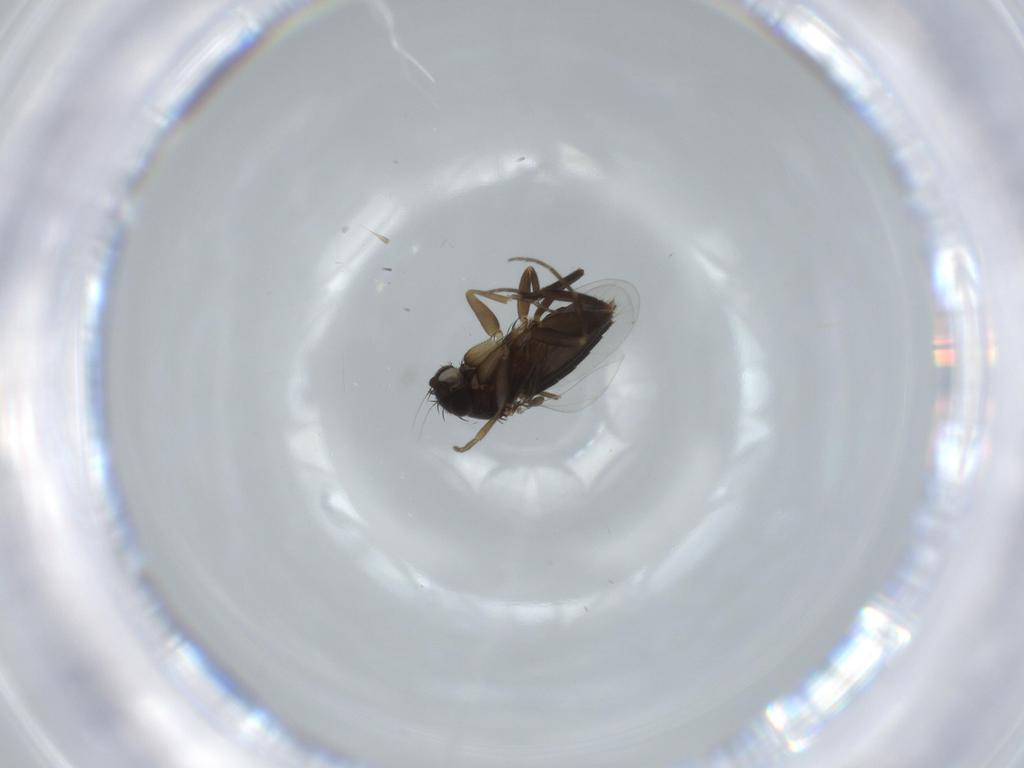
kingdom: Animalia
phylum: Arthropoda
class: Insecta
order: Diptera
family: Phoridae
